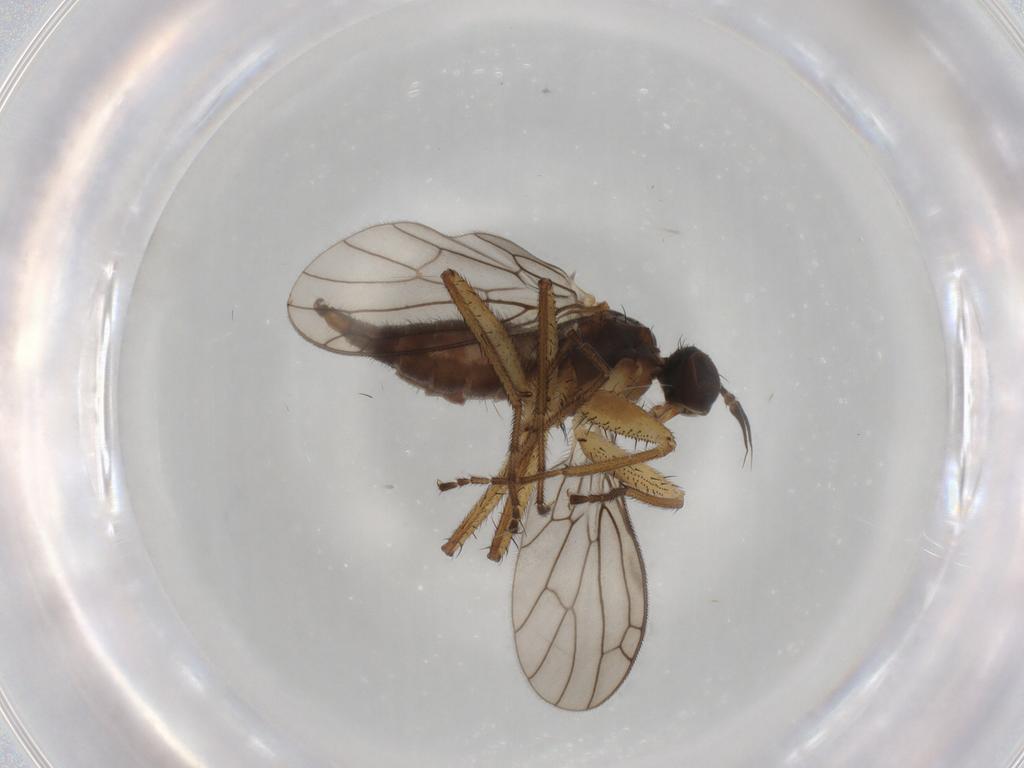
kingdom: Animalia
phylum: Arthropoda
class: Insecta
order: Diptera
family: Empididae
